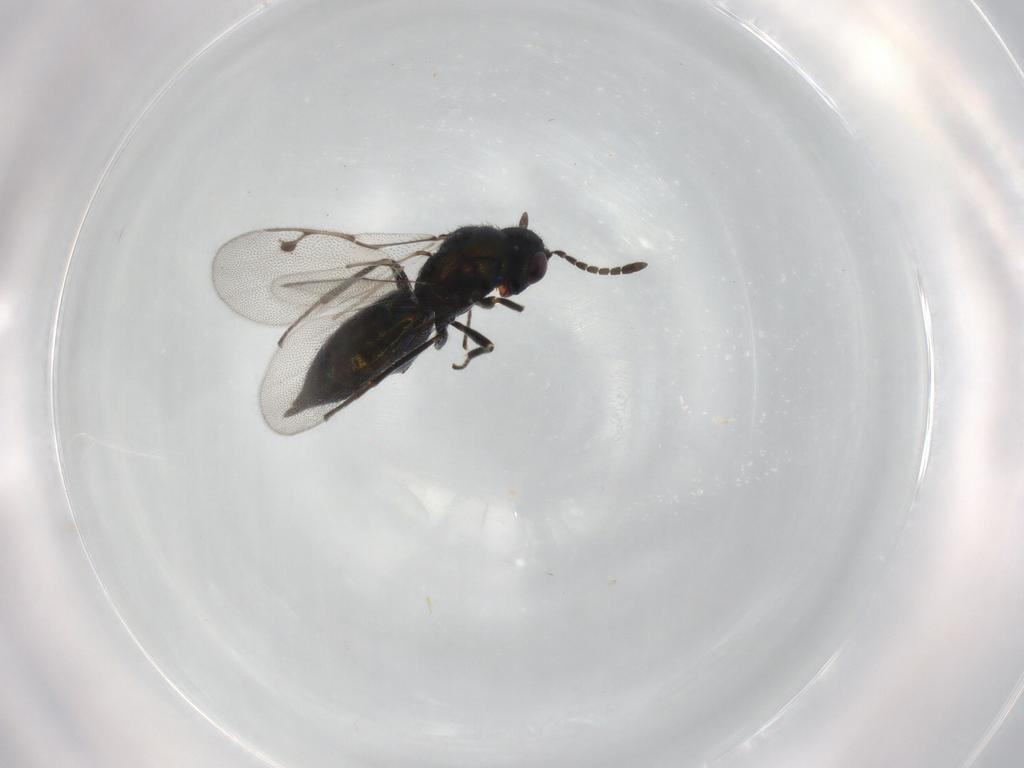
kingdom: Animalia
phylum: Arthropoda
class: Insecta
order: Hymenoptera
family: Pirenidae
